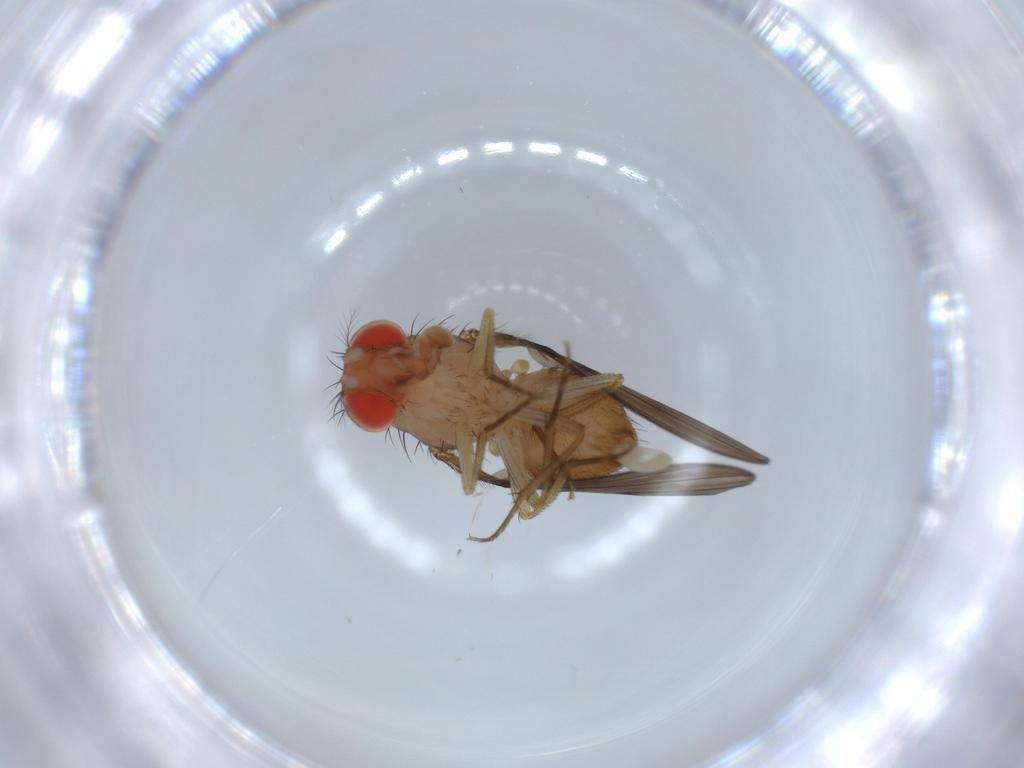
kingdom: Animalia
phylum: Arthropoda
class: Insecta
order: Diptera
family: Drosophilidae
